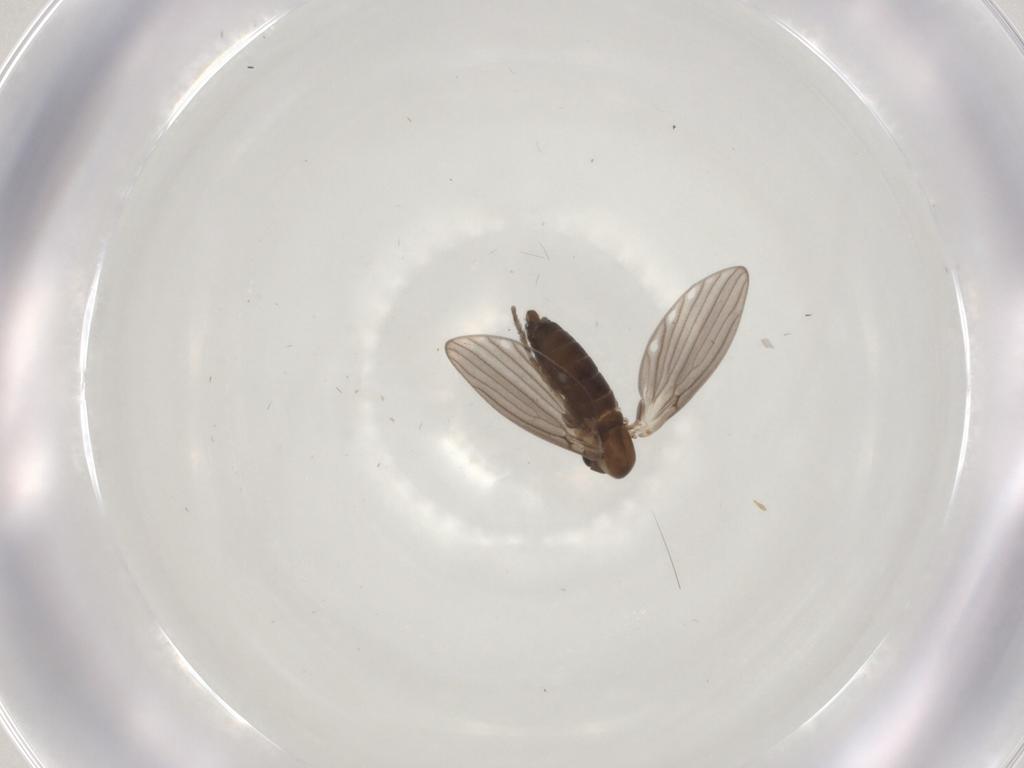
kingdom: Animalia
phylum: Arthropoda
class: Insecta
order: Diptera
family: Psychodidae
